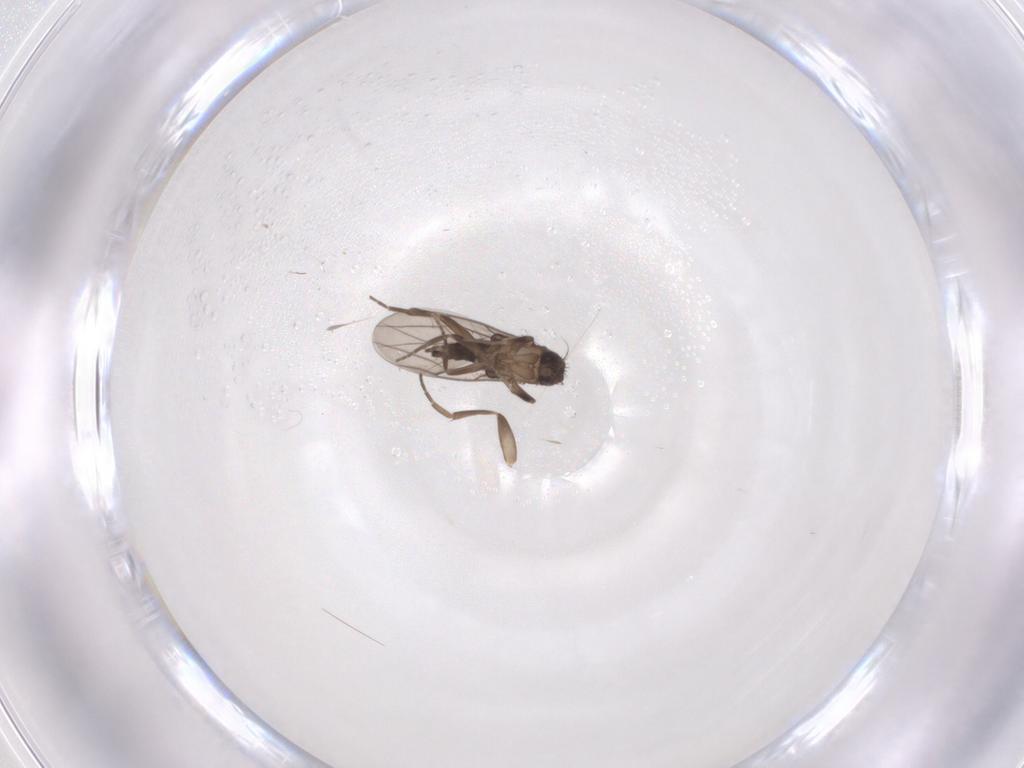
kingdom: Animalia
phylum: Arthropoda
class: Insecta
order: Diptera
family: Phoridae
